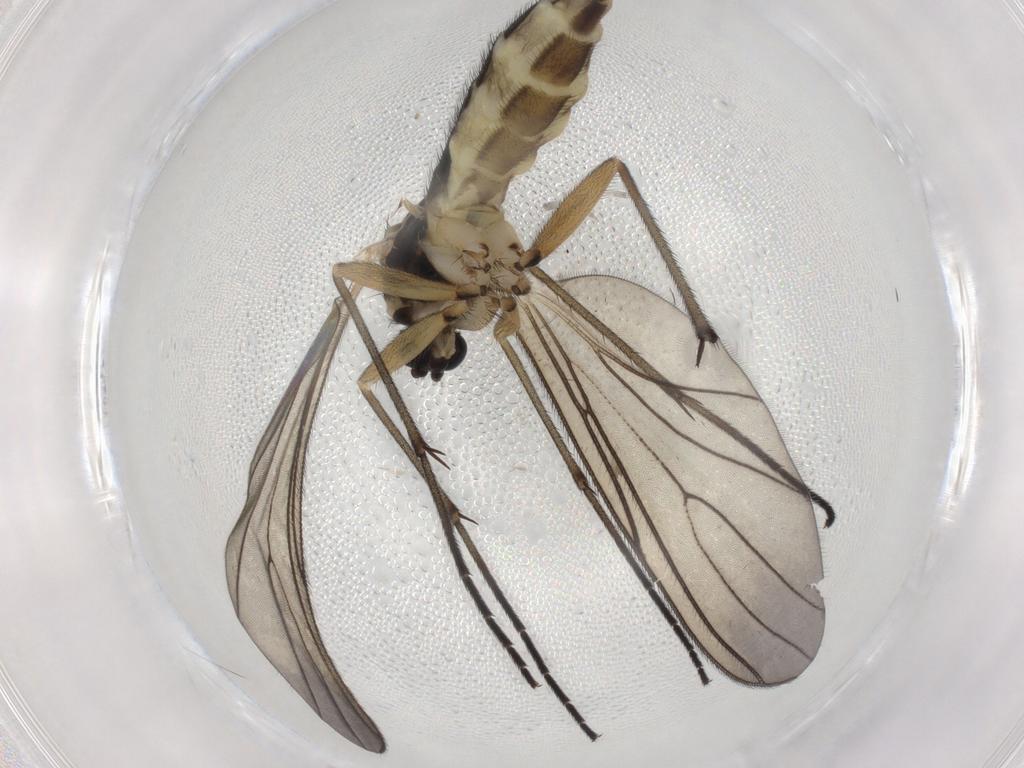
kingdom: Animalia
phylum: Arthropoda
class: Insecta
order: Diptera
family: Sciaridae
